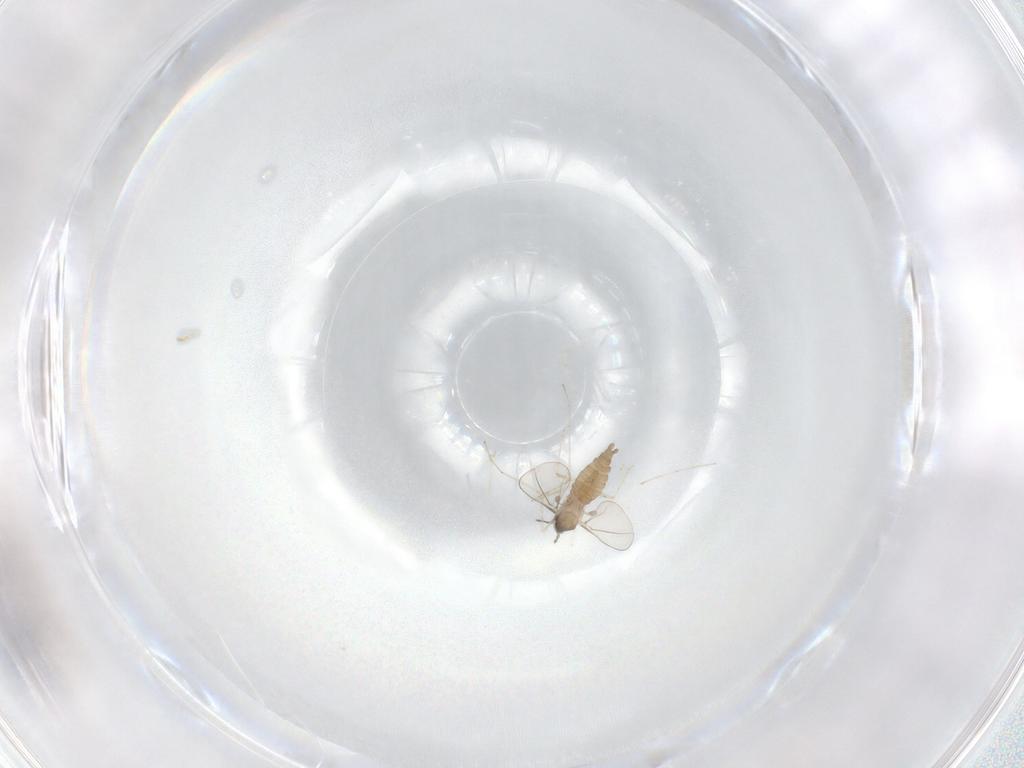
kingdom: Animalia
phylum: Arthropoda
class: Insecta
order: Diptera
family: Cecidomyiidae
